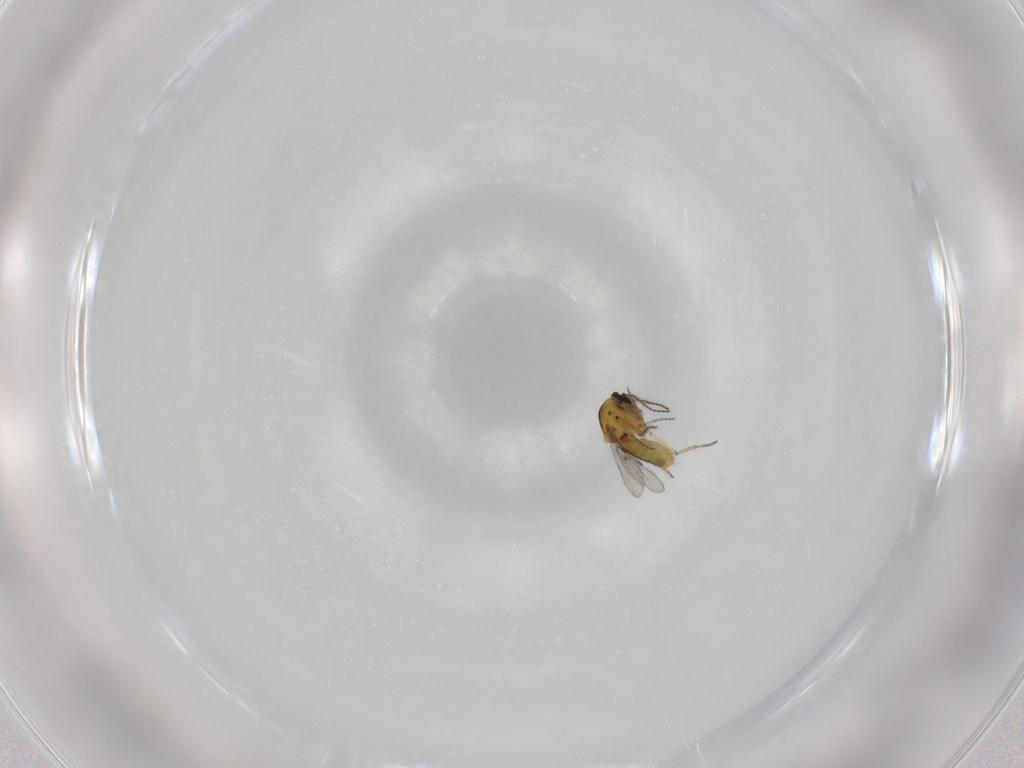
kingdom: Animalia
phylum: Arthropoda
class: Insecta
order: Diptera
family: Ceratopogonidae
